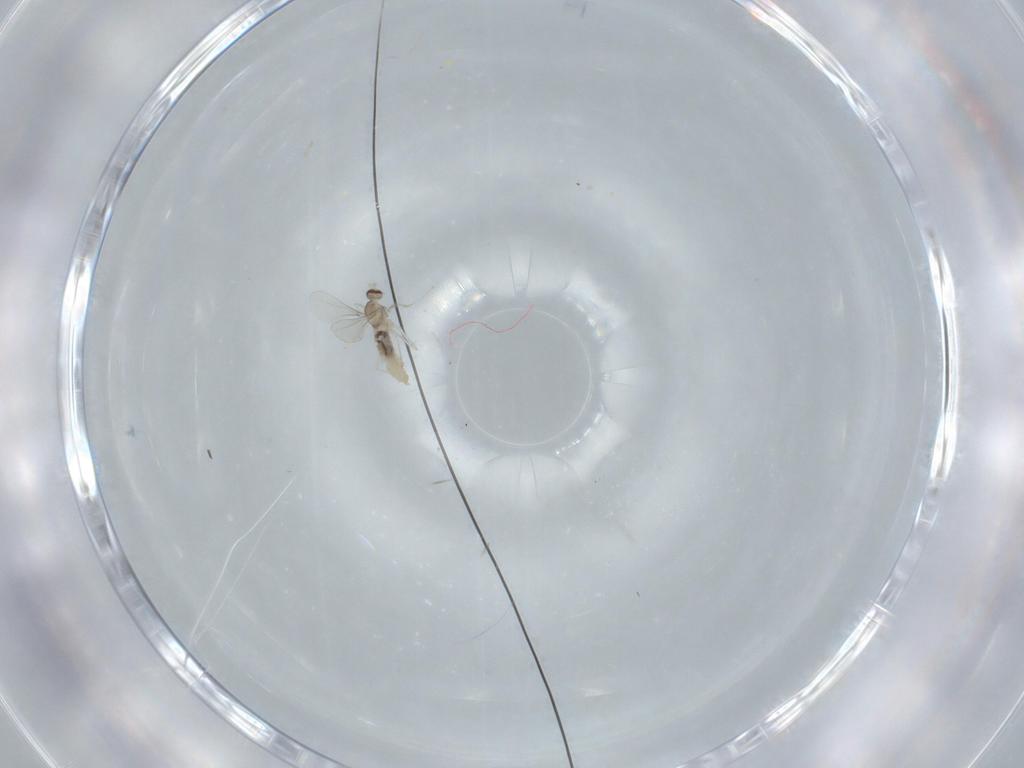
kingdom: Animalia
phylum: Arthropoda
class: Insecta
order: Diptera
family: Cecidomyiidae
